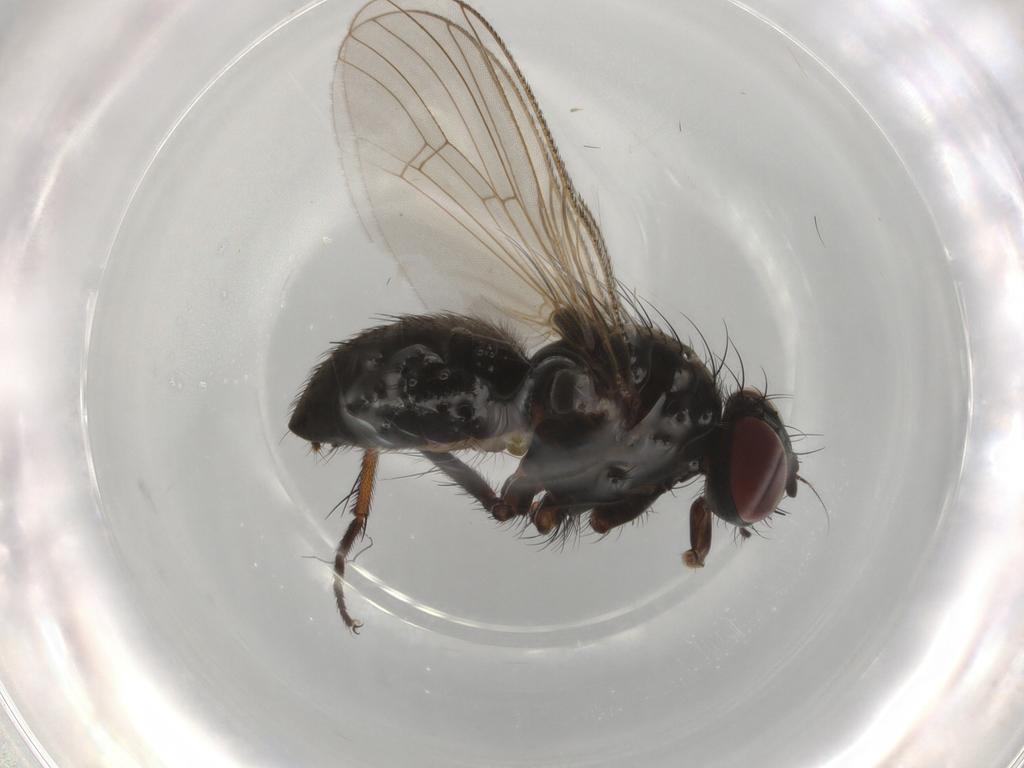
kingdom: Animalia
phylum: Arthropoda
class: Insecta
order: Diptera
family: Muscidae
